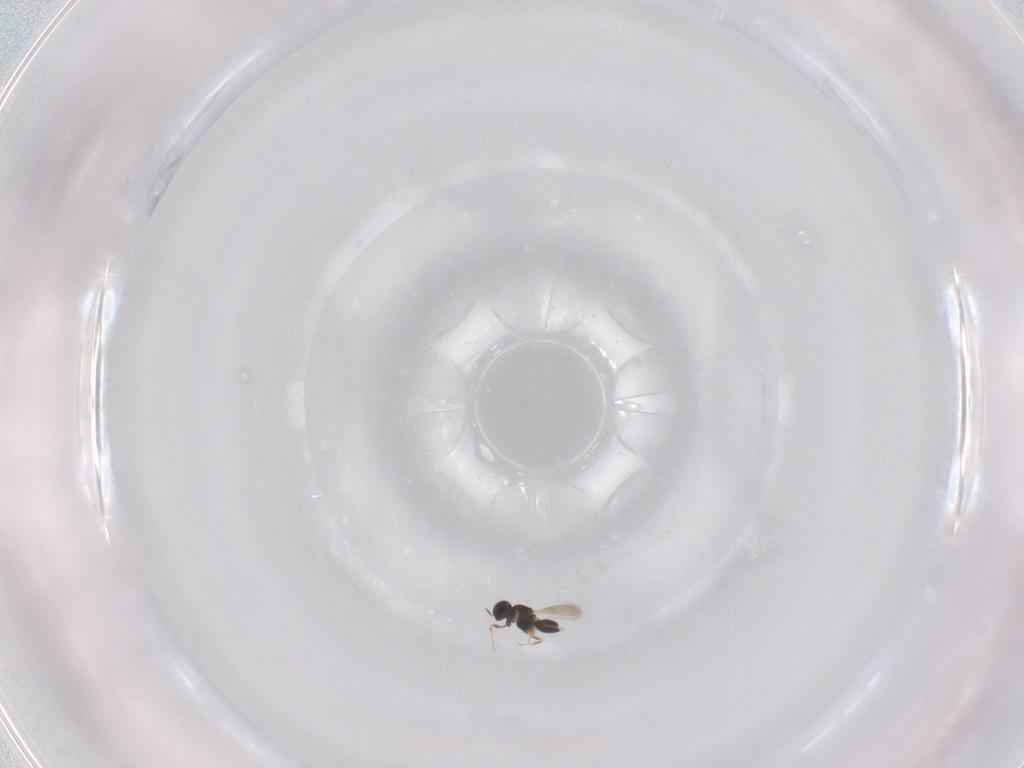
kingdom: Animalia
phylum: Arthropoda
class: Insecta
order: Hymenoptera
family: Scelionidae
